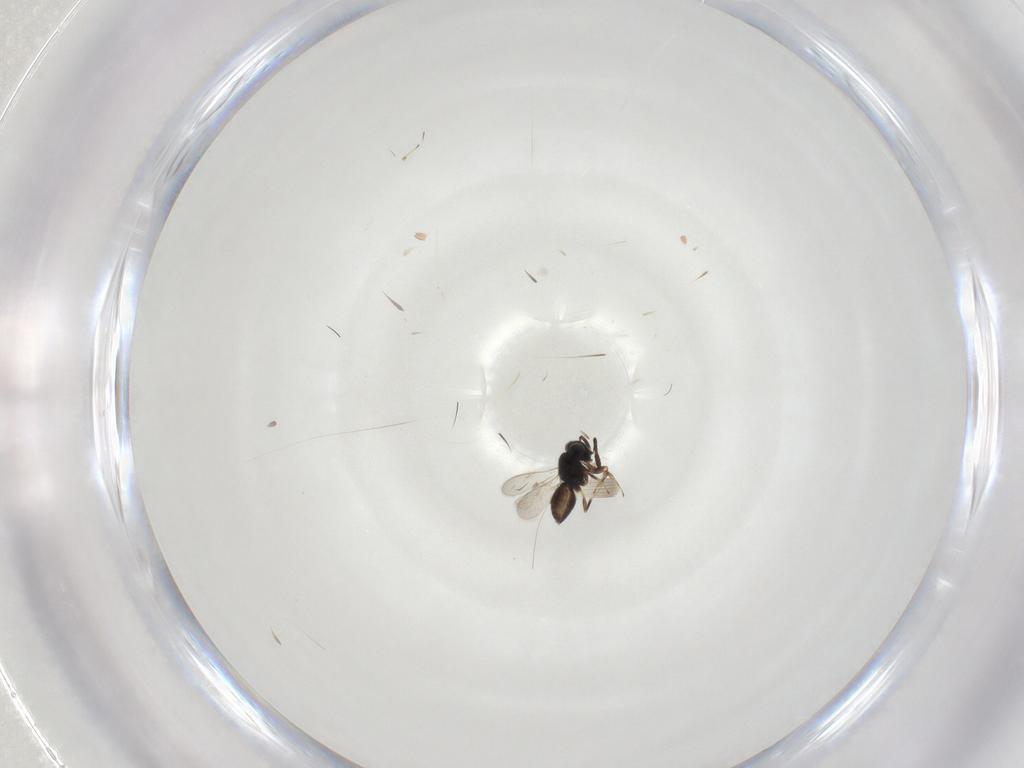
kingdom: Animalia
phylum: Arthropoda
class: Insecta
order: Hymenoptera
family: Scelionidae
